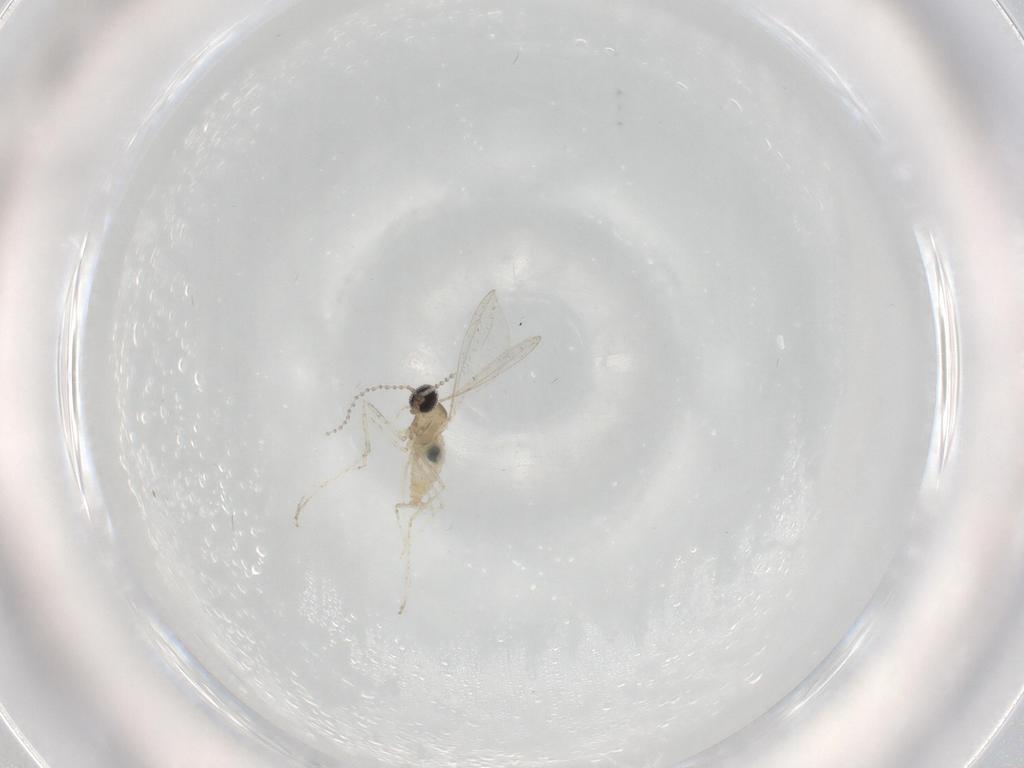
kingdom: Animalia
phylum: Arthropoda
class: Insecta
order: Diptera
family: Cecidomyiidae
